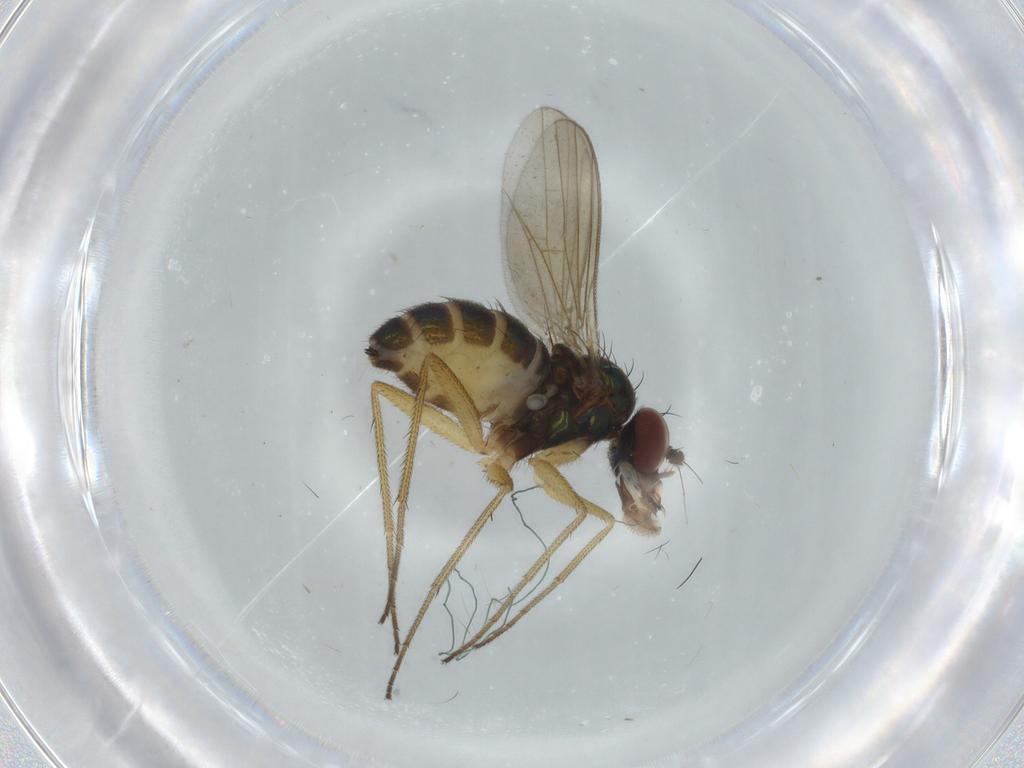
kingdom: Animalia
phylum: Arthropoda
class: Insecta
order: Diptera
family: Dolichopodidae
